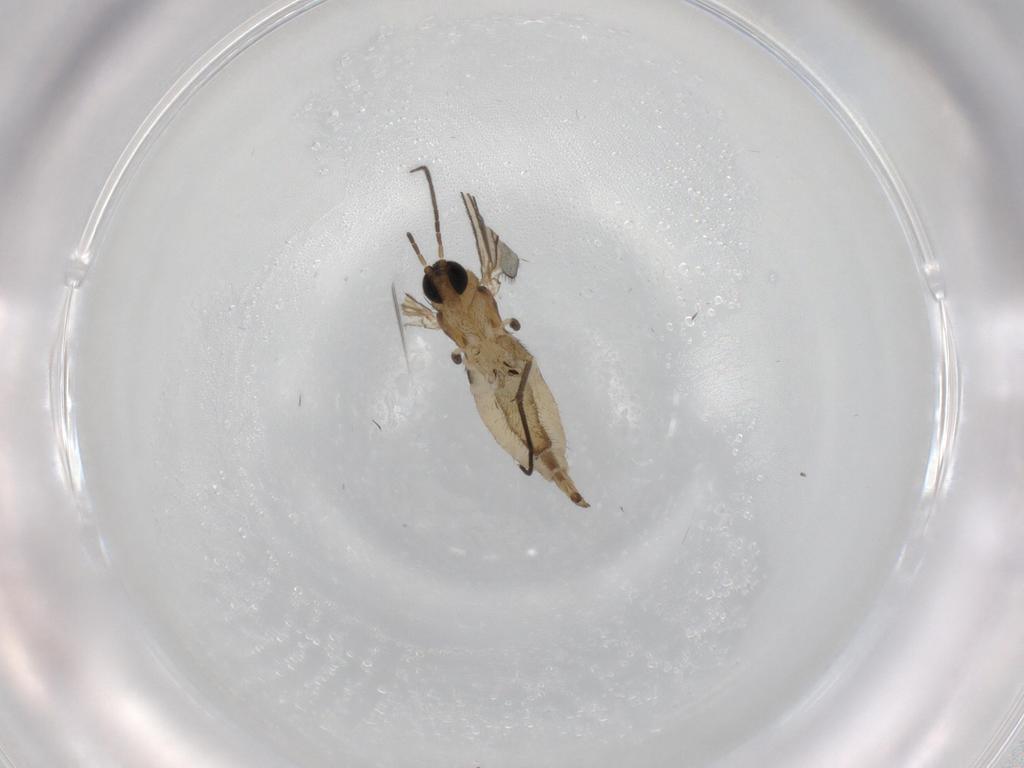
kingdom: Animalia
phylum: Arthropoda
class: Insecta
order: Diptera
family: Sciaridae
